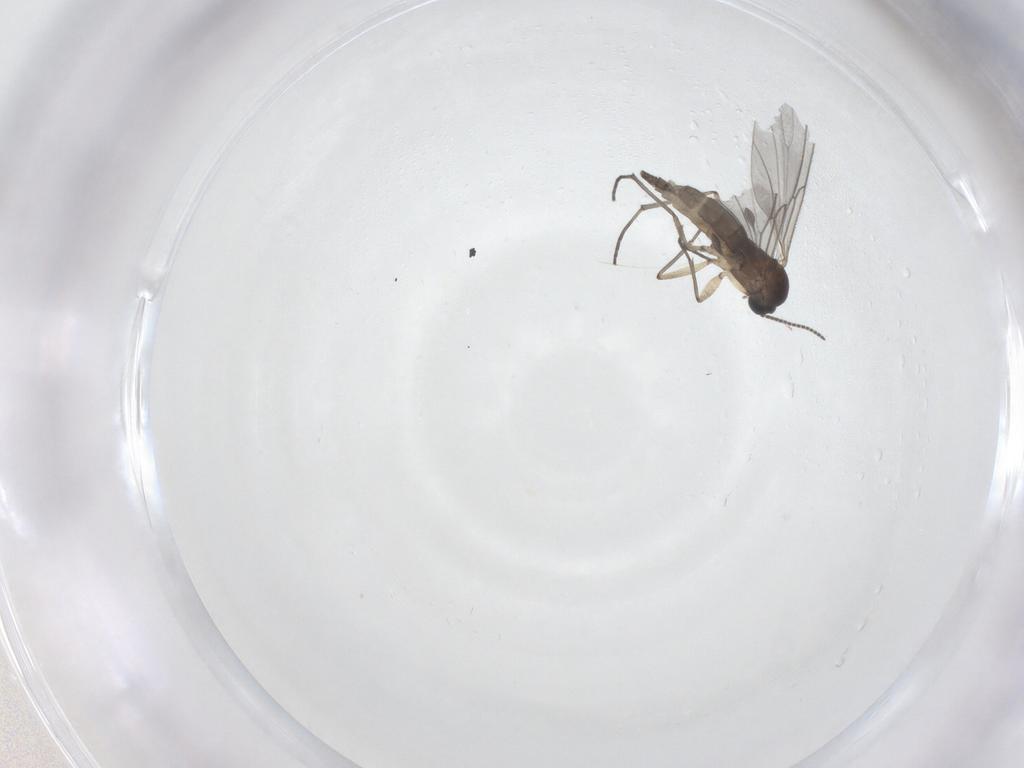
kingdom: Animalia
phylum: Arthropoda
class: Insecta
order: Diptera
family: Sciaridae
